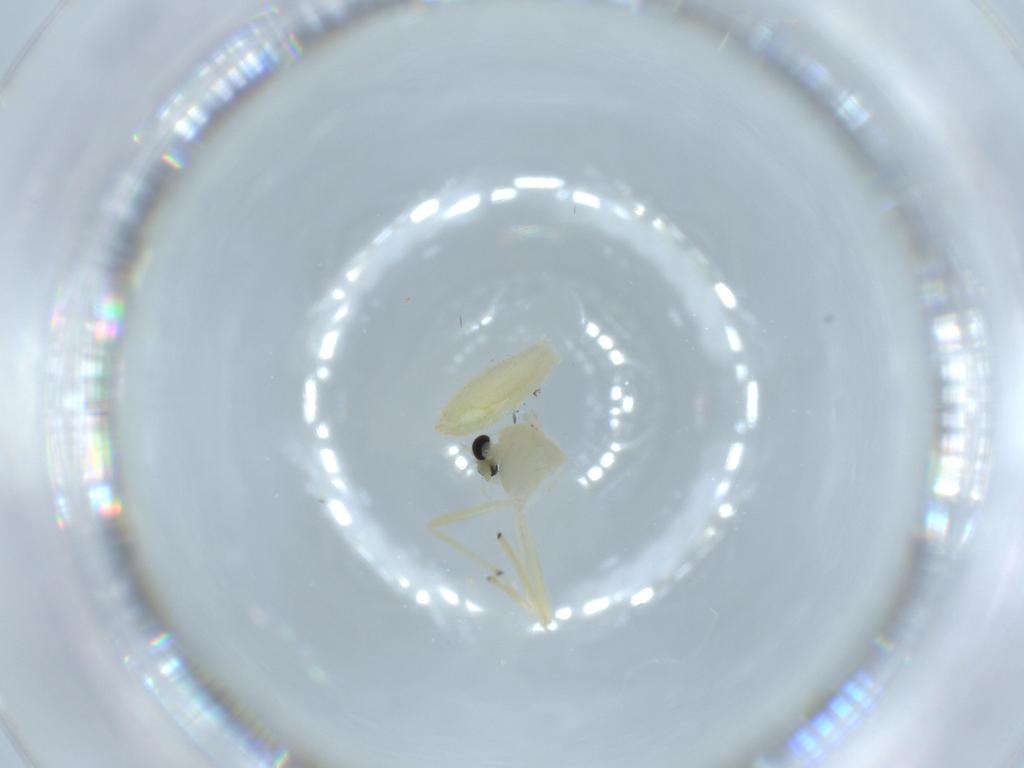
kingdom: Animalia
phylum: Arthropoda
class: Insecta
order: Diptera
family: Chironomidae
